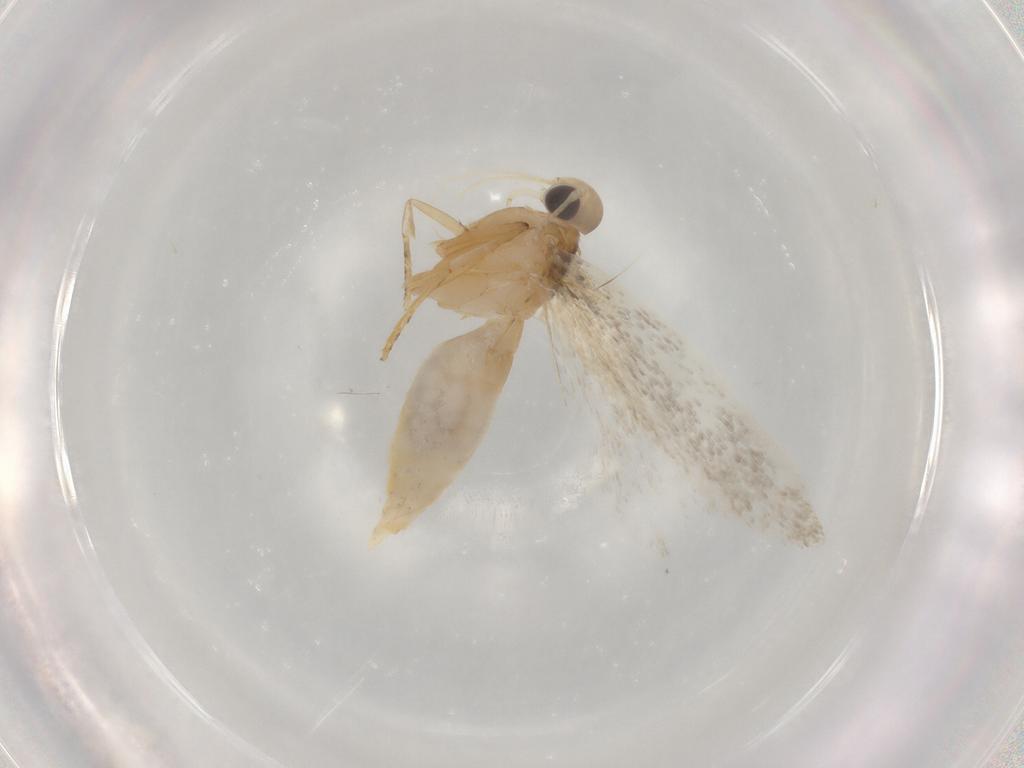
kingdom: Animalia
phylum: Arthropoda
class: Insecta
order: Lepidoptera
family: Autostichidae
